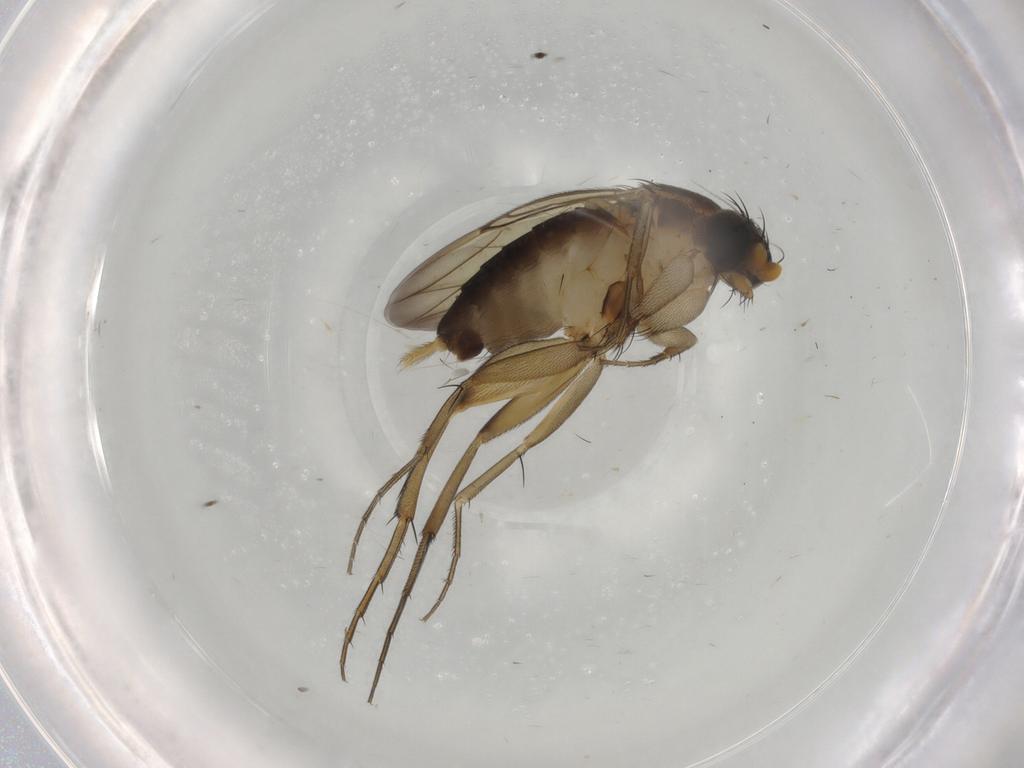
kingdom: Animalia
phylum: Arthropoda
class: Insecta
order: Diptera
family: Phoridae
